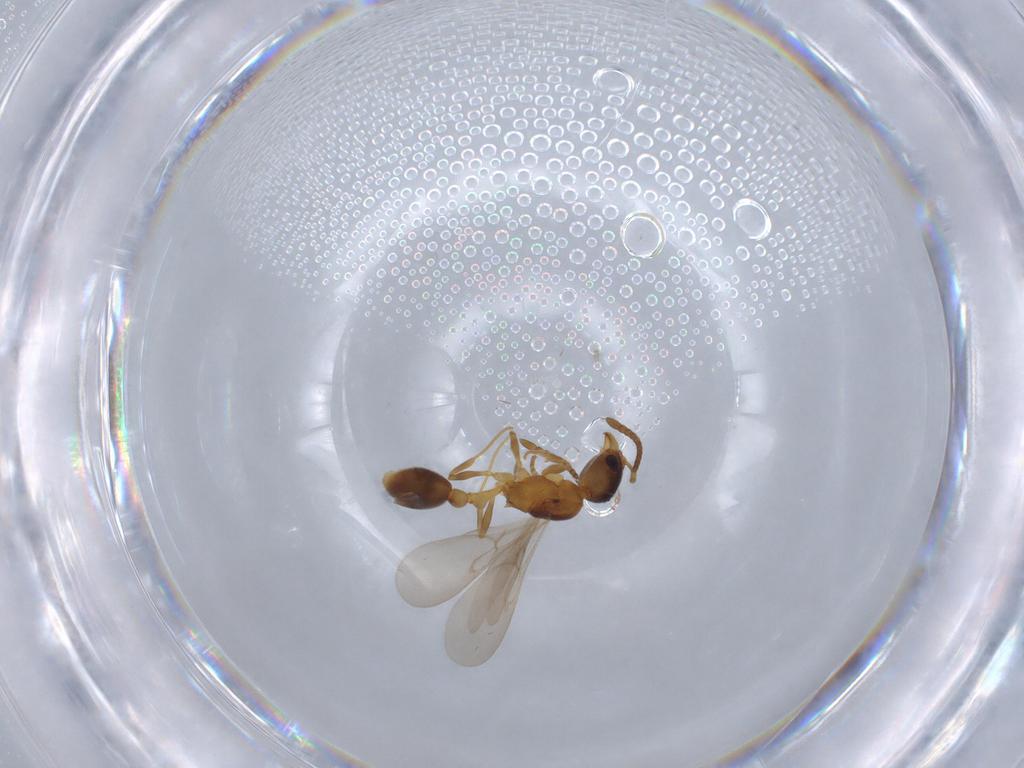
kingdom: Animalia
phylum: Arthropoda
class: Insecta
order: Hymenoptera
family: Formicidae
